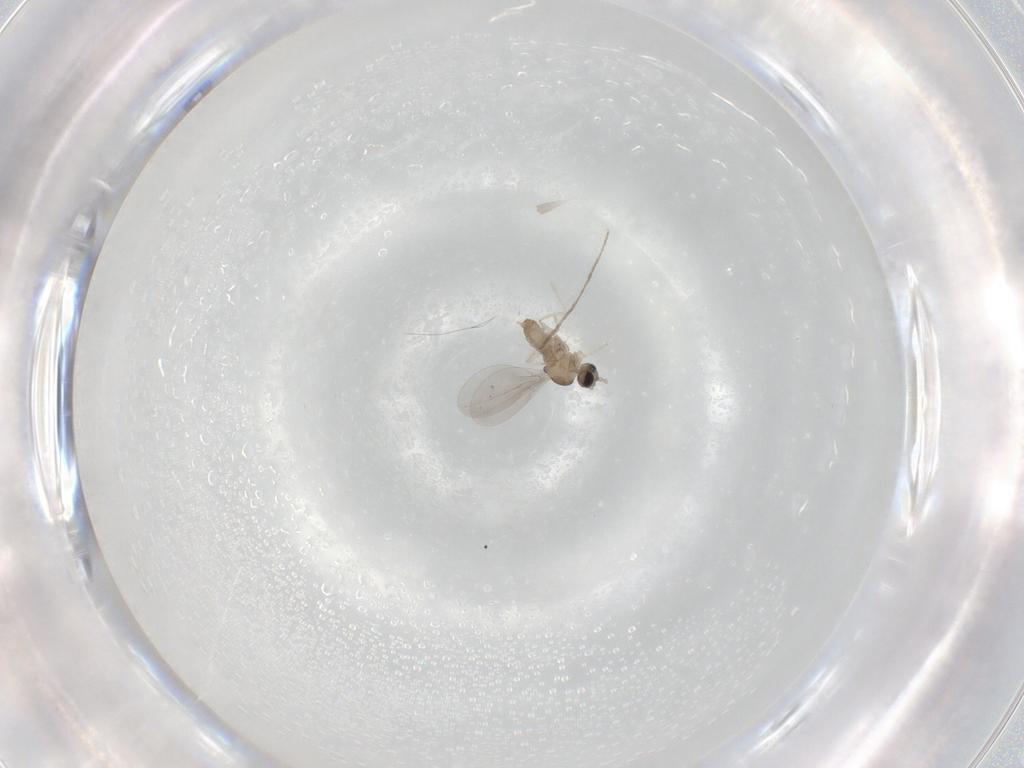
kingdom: Animalia
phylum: Arthropoda
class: Insecta
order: Diptera
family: Cecidomyiidae
